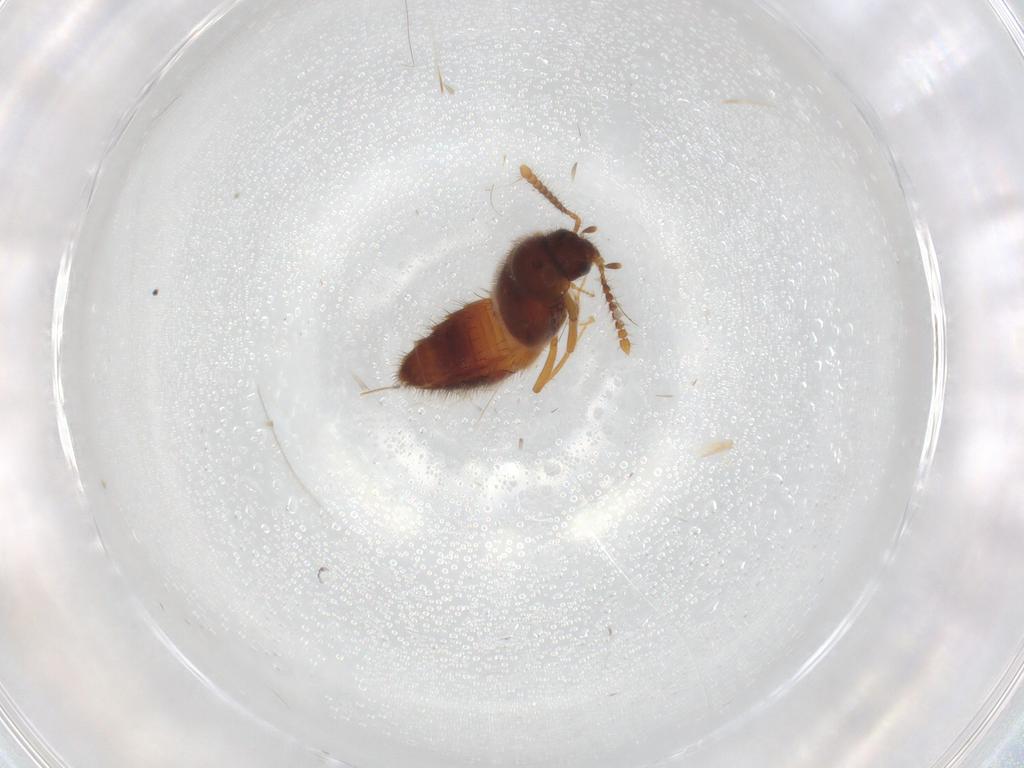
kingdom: Animalia
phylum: Arthropoda
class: Insecta
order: Coleoptera
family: Staphylinidae
